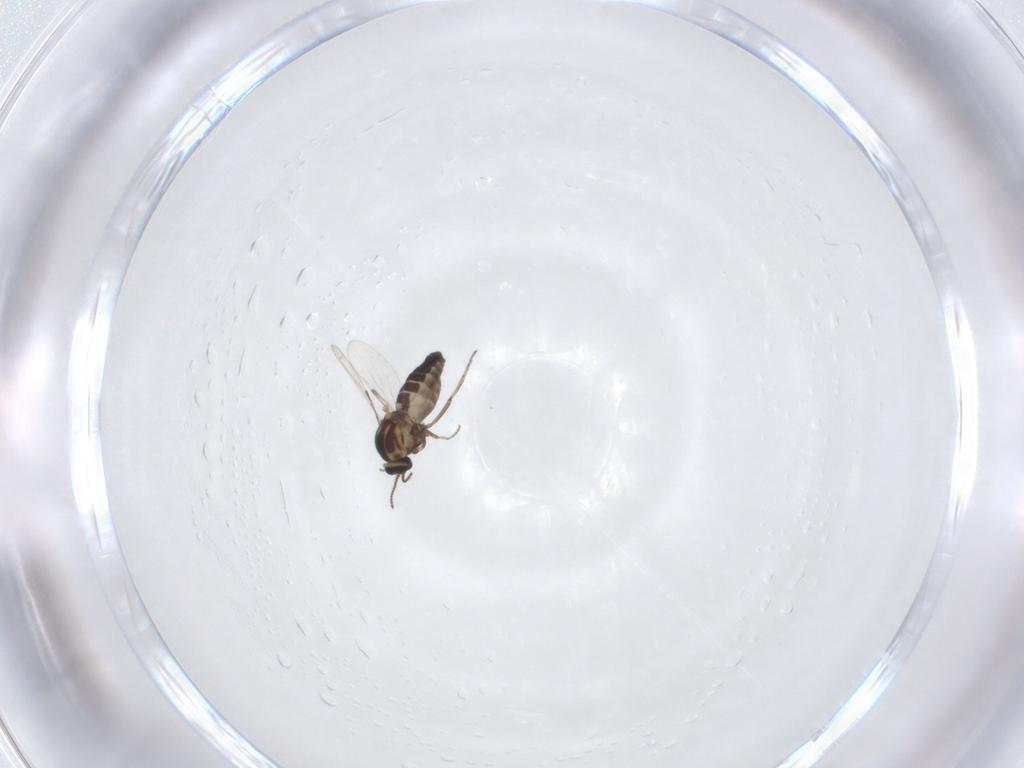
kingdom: Animalia
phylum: Arthropoda
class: Insecta
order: Diptera
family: Ceratopogonidae
